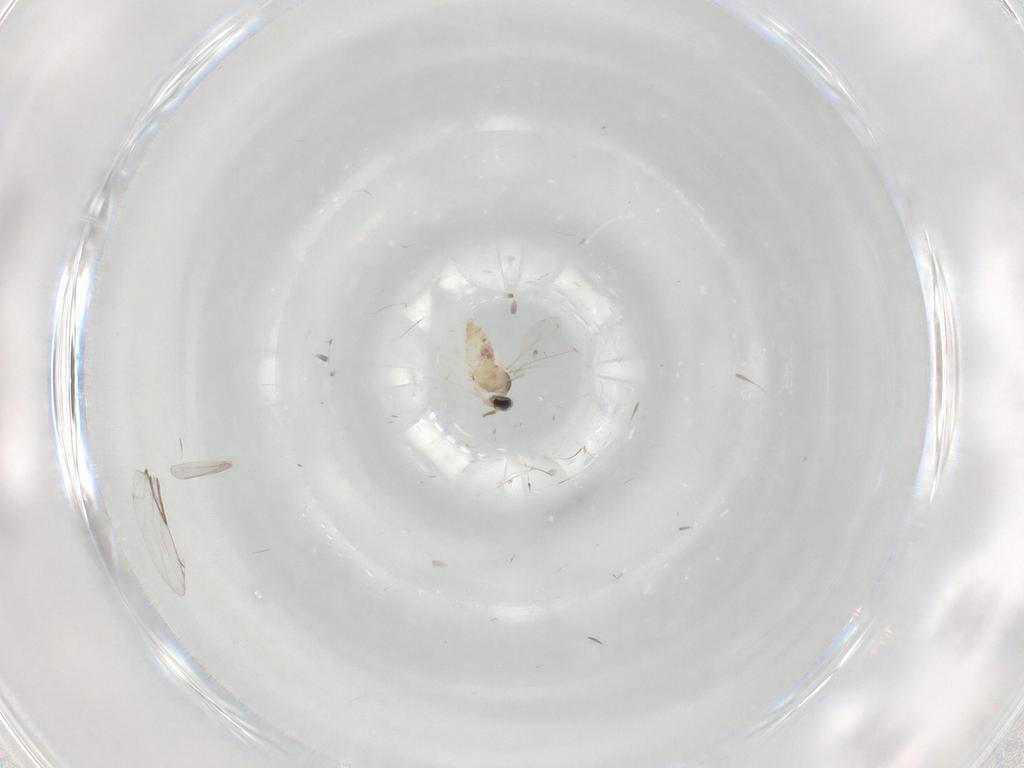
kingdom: Animalia
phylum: Arthropoda
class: Insecta
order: Diptera
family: Cecidomyiidae
